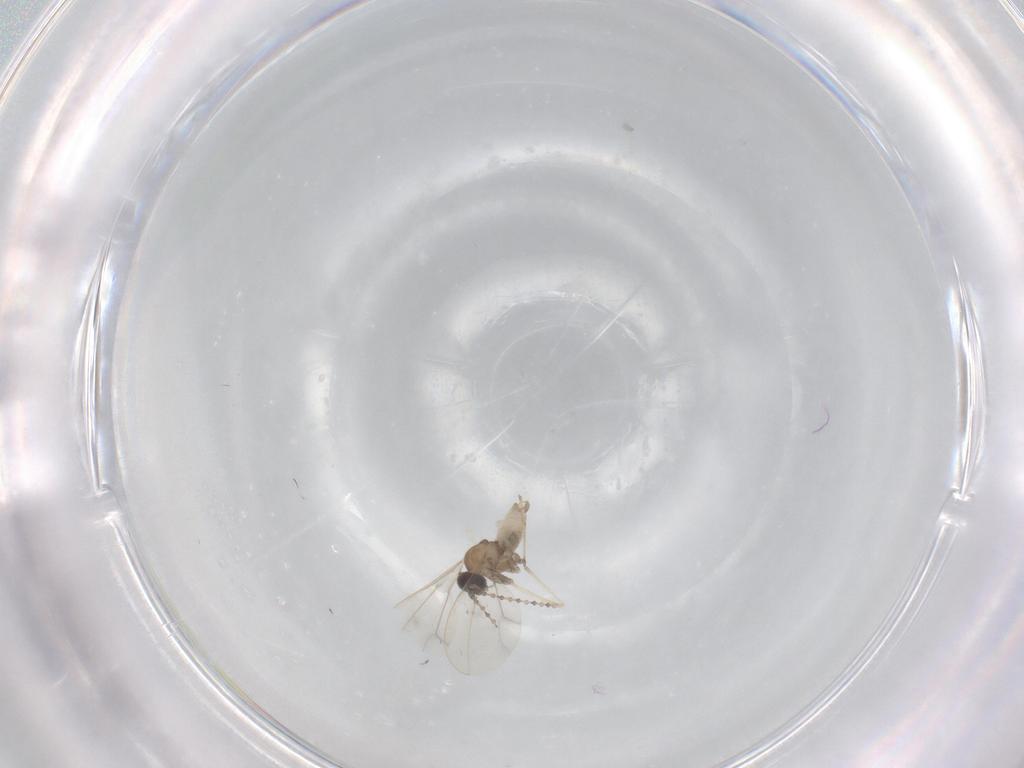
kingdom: Animalia
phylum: Arthropoda
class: Insecta
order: Diptera
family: Cecidomyiidae
